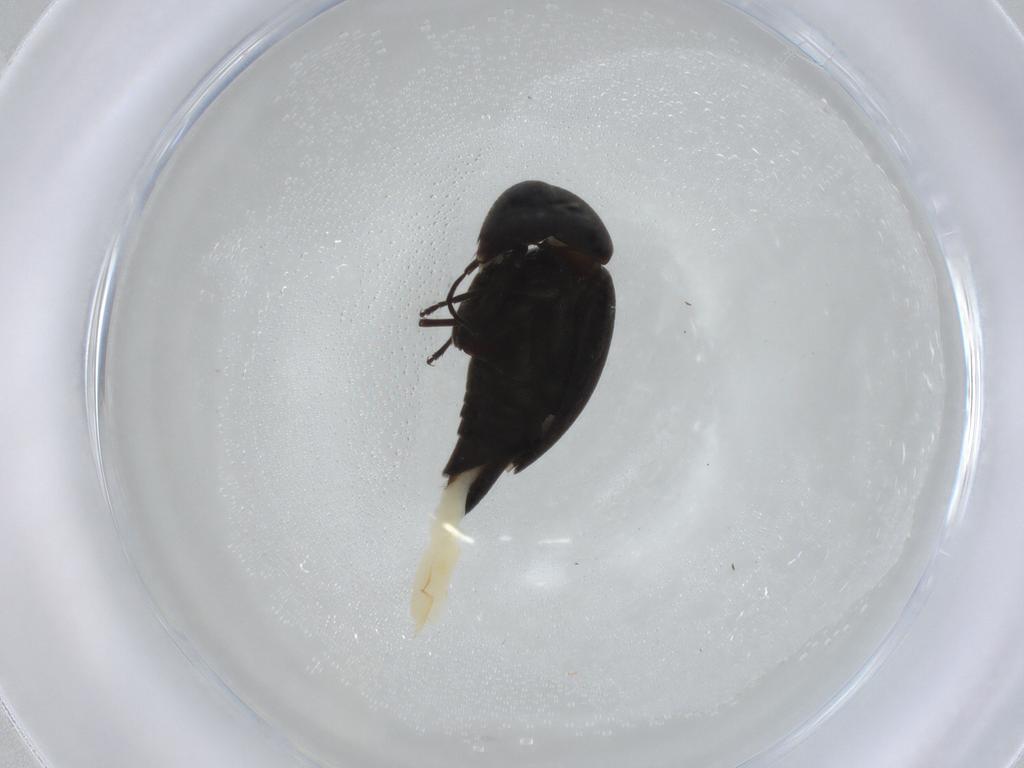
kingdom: Animalia
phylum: Arthropoda
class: Insecta
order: Coleoptera
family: Mordellidae
